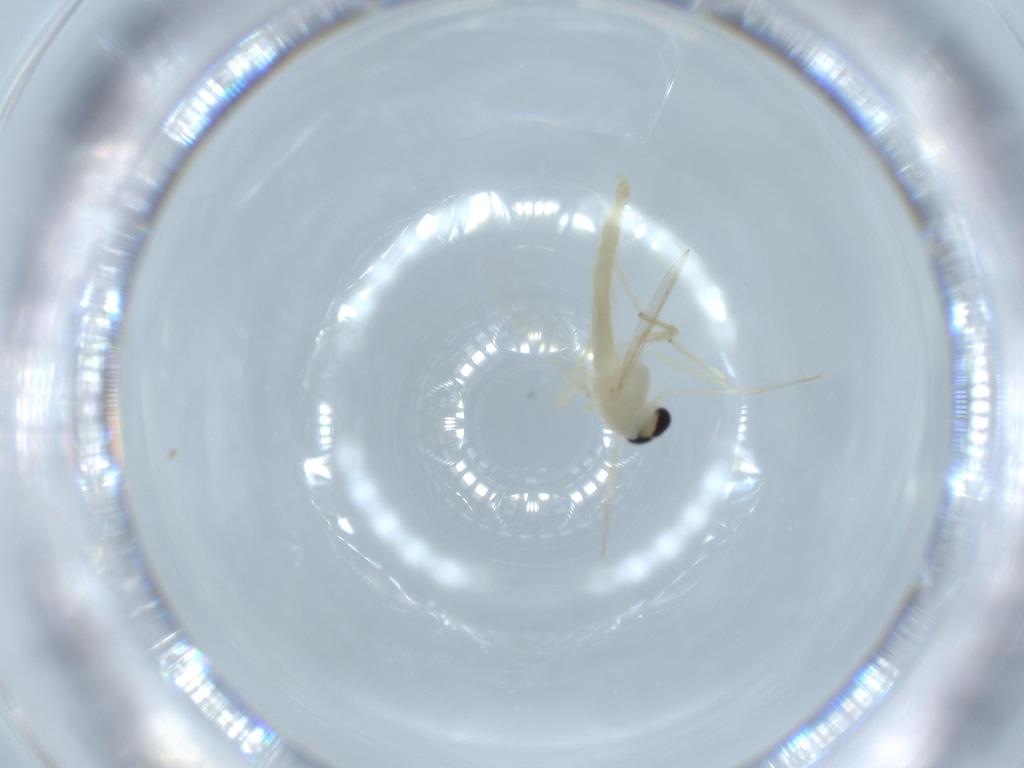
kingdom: Animalia
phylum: Arthropoda
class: Insecta
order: Diptera
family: Chironomidae
